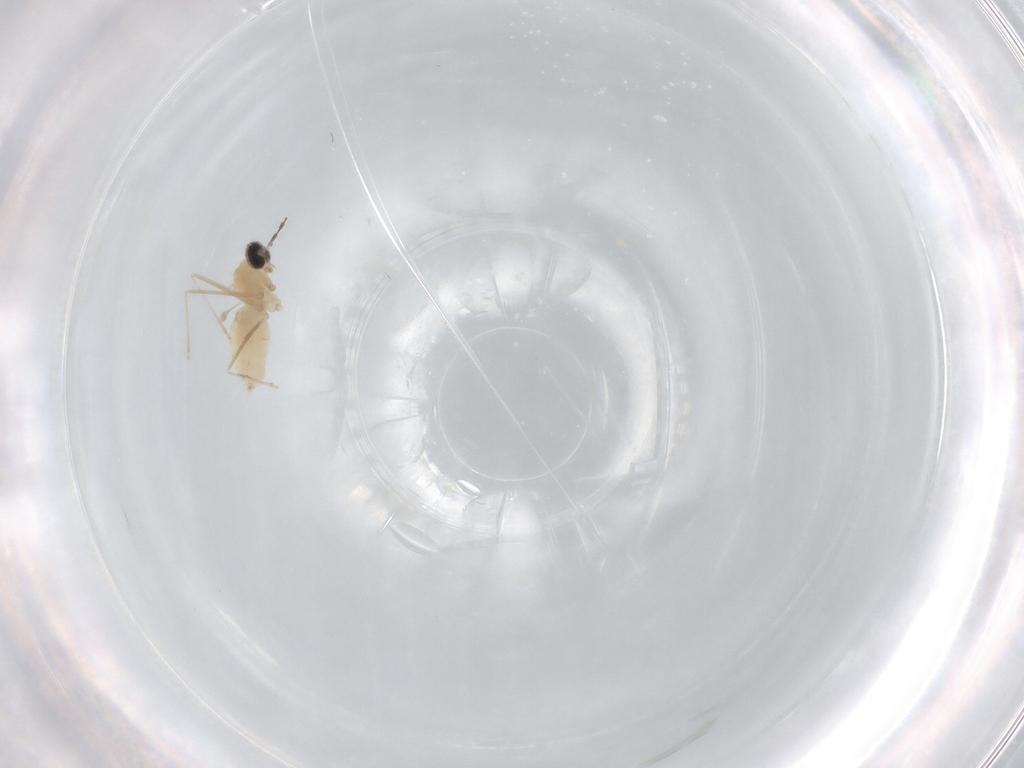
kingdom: Animalia
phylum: Arthropoda
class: Insecta
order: Diptera
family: Cecidomyiidae
